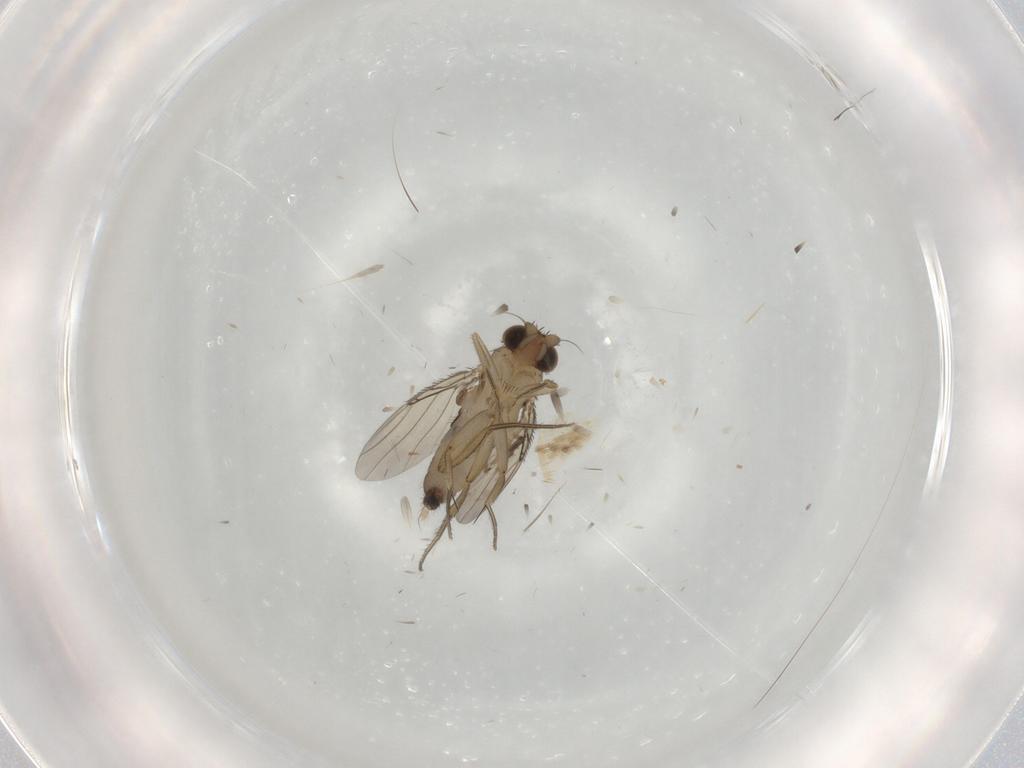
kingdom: Animalia
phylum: Arthropoda
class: Insecta
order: Diptera
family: Phoridae
